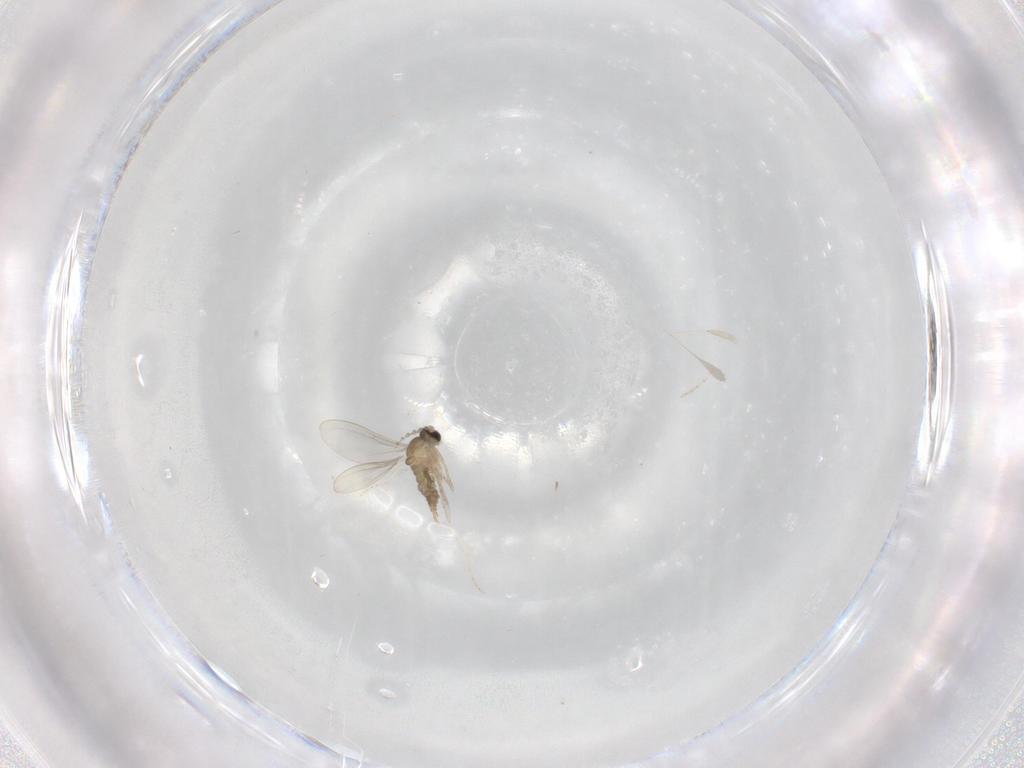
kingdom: Animalia
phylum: Arthropoda
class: Insecta
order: Diptera
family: Cecidomyiidae
